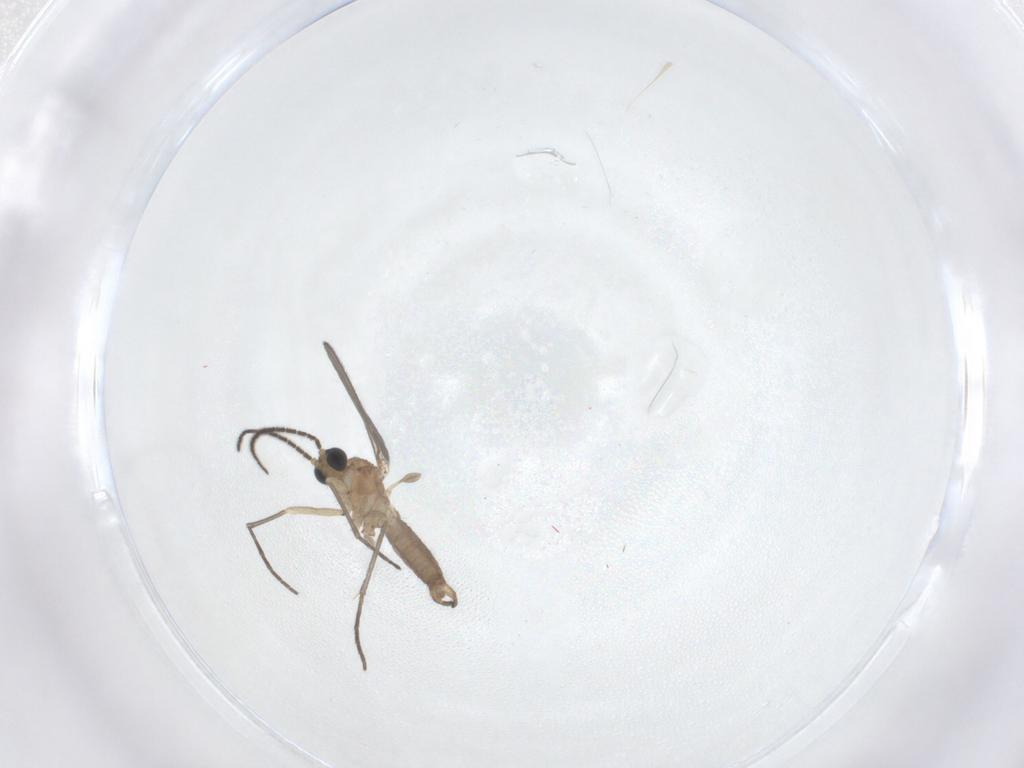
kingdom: Animalia
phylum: Arthropoda
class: Insecta
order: Diptera
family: Sciaridae
